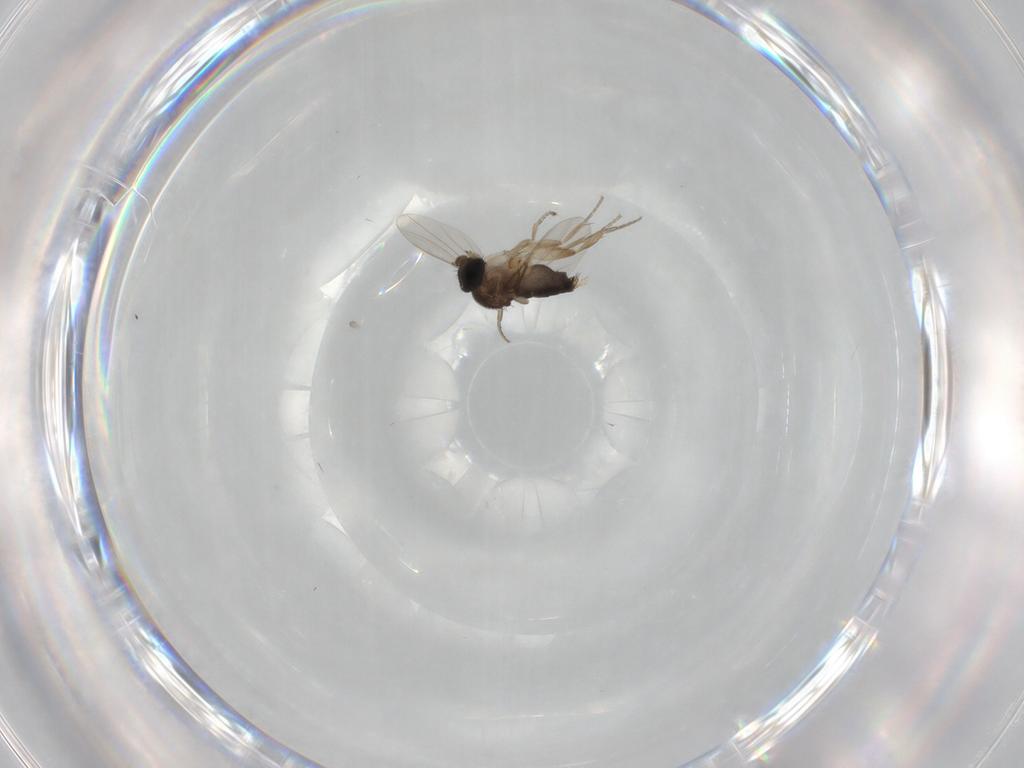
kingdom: Animalia
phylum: Arthropoda
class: Insecta
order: Diptera
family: Phoridae
